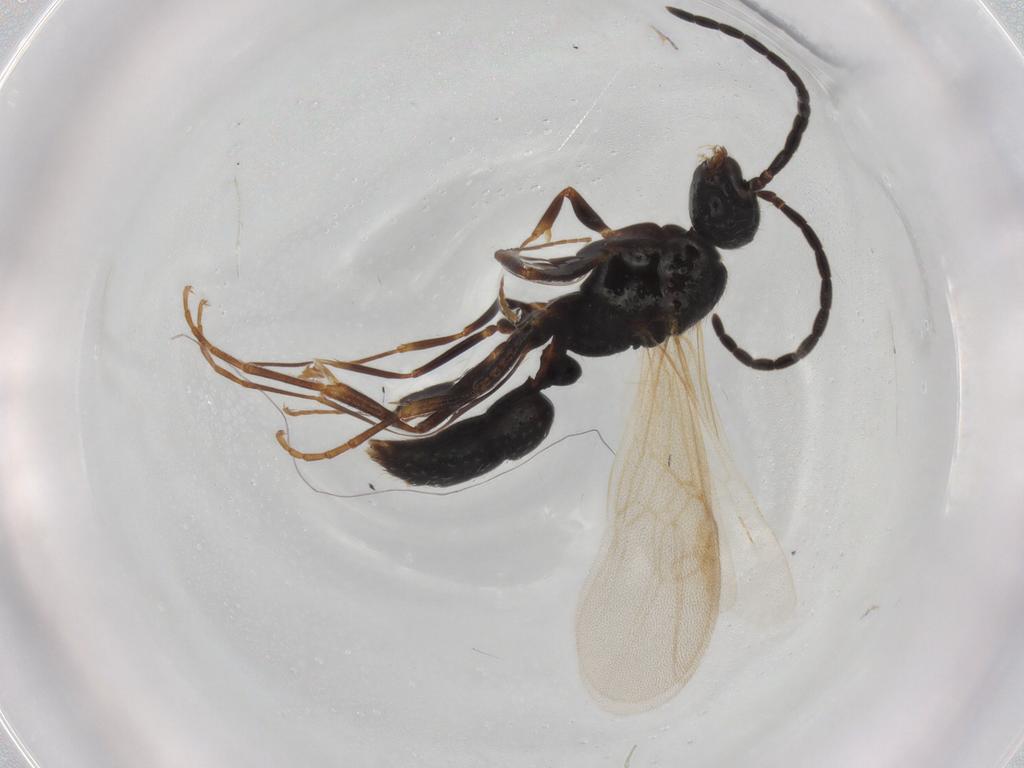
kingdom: Animalia
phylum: Arthropoda
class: Insecta
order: Hymenoptera
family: Formicidae
